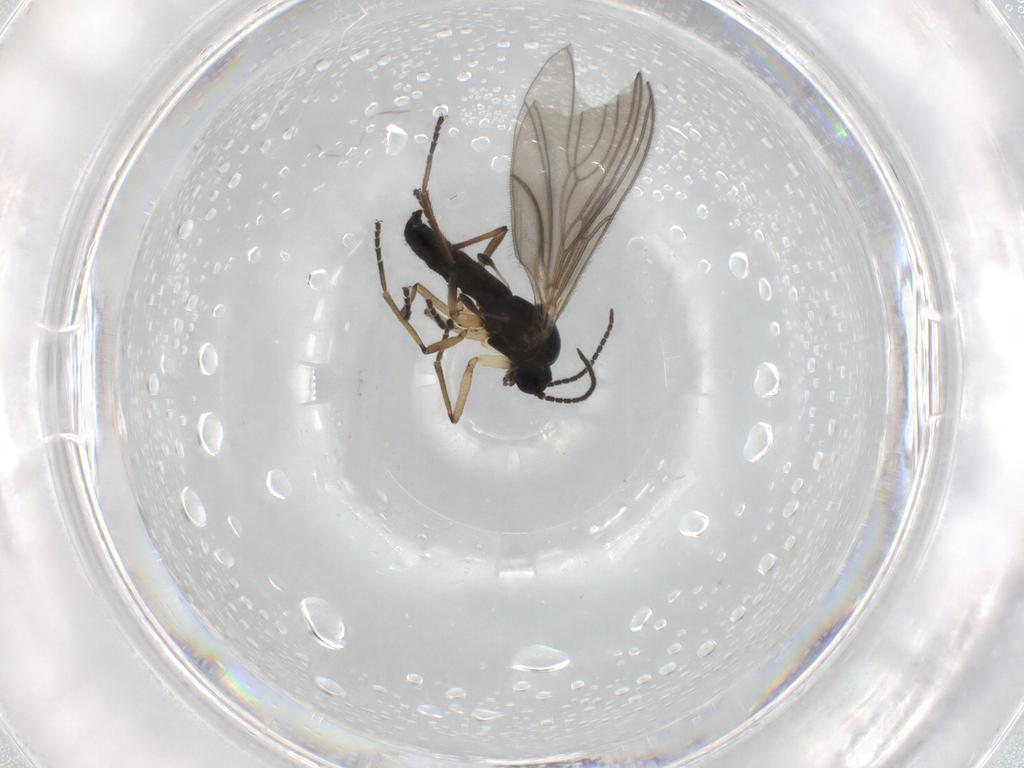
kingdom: Animalia
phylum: Arthropoda
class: Insecta
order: Diptera
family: Sciaridae
